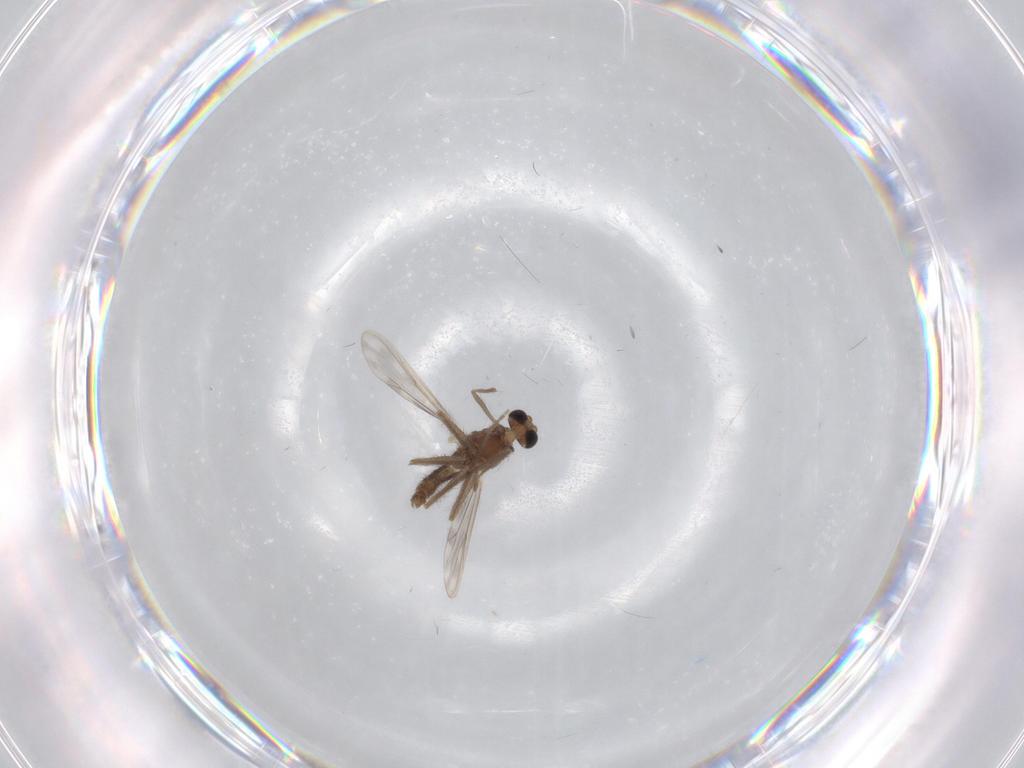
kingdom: Animalia
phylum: Arthropoda
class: Insecta
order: Diptera
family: Chironomidae
